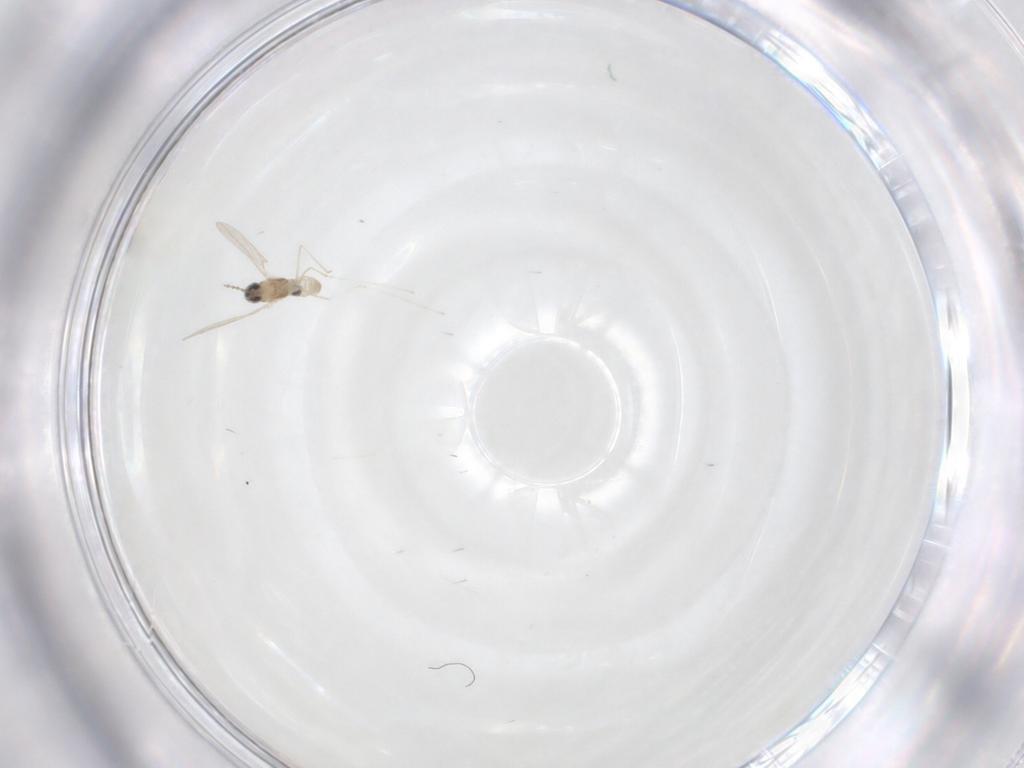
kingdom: Animalia
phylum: Arthropoda
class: Insecta
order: Diptera
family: Cecidomyiidae
